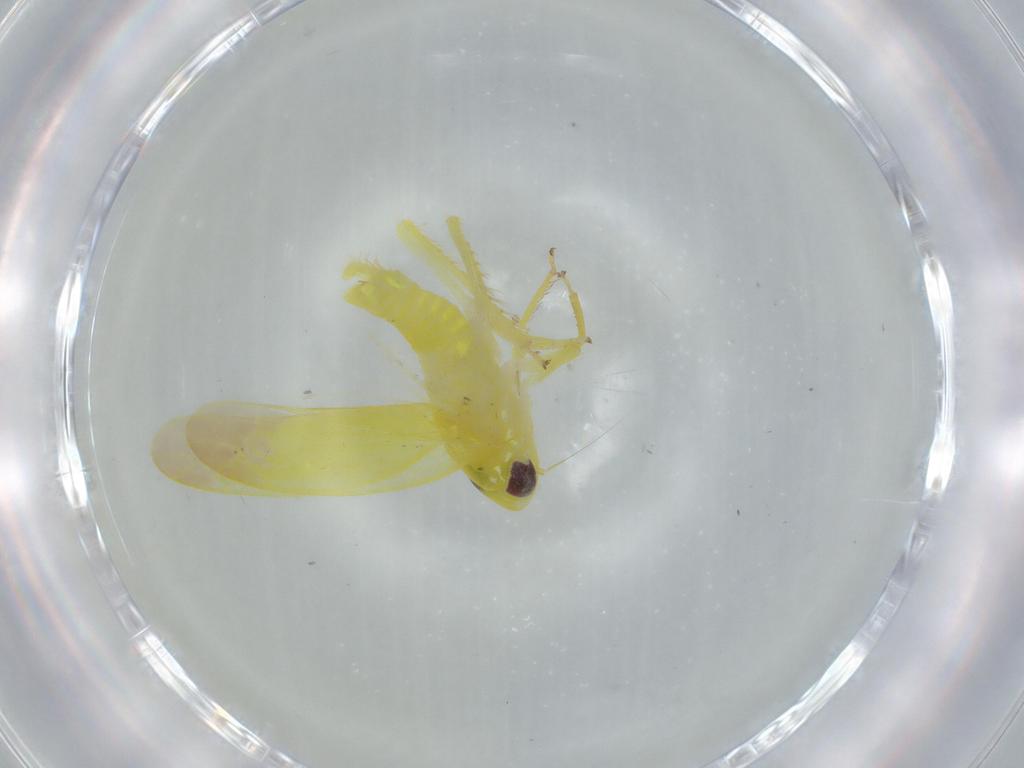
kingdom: Animalia
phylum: Arthropoda
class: Insecta
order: Hemiptera
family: Cicadellidae
